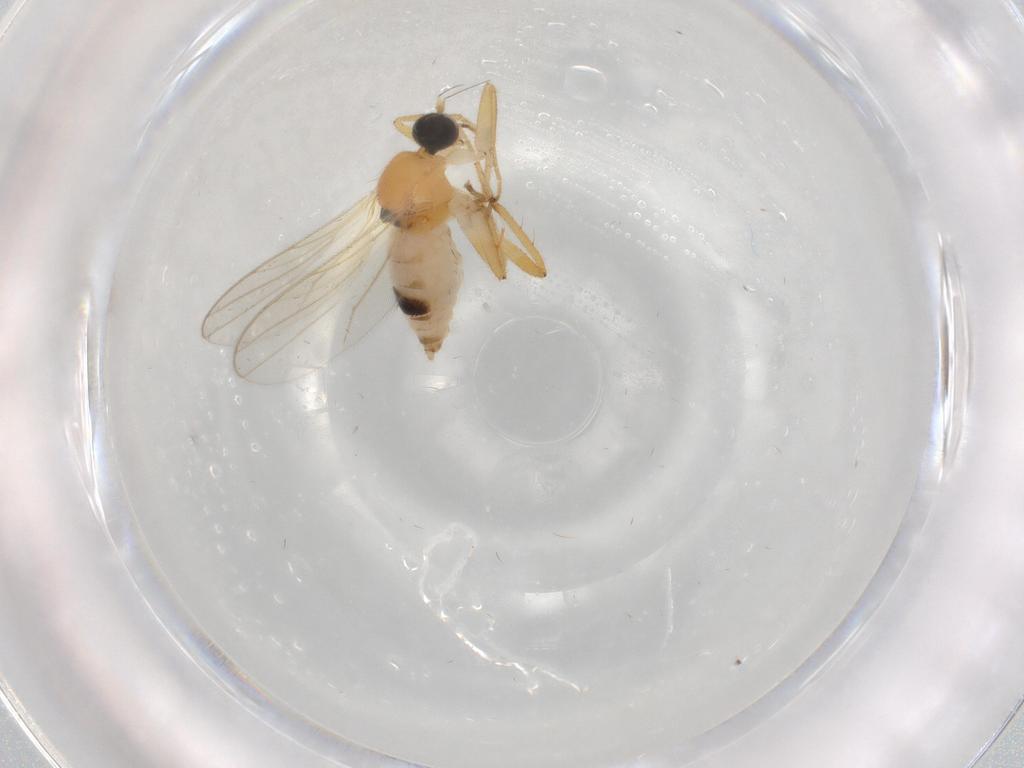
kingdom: Animalia
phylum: Arthropoda
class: Insecta
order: Diptera
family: Hybotidae
